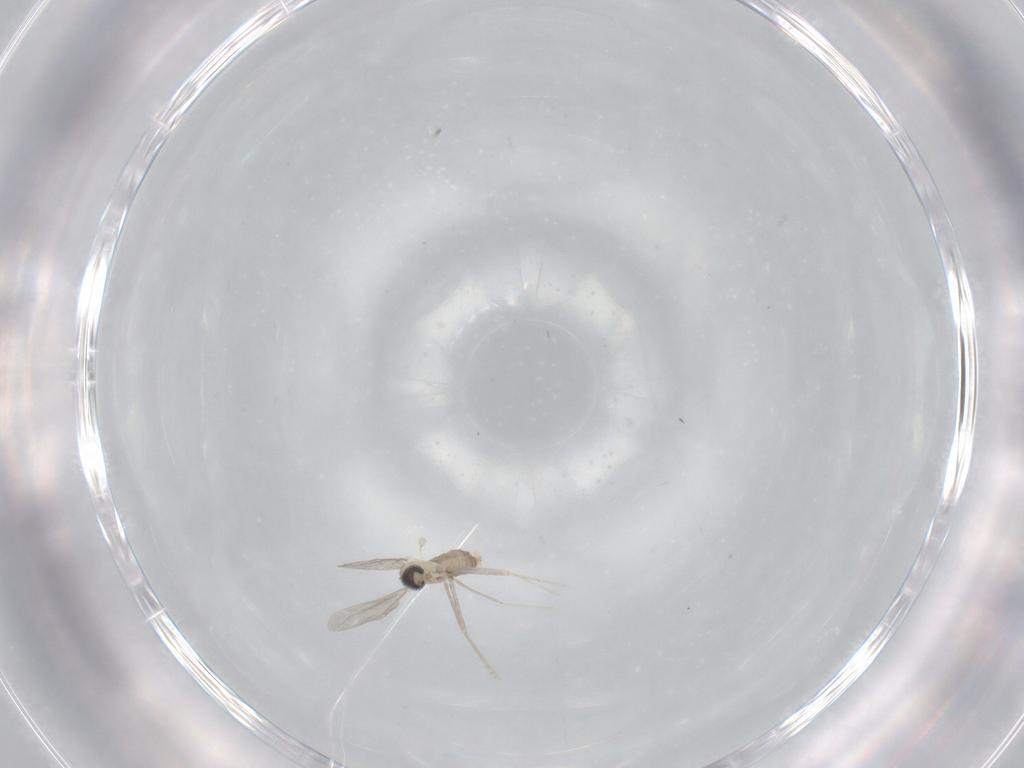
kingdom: Animalia
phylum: Arthropoda
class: Insecta
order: Diptera
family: Cecidomyiidae
